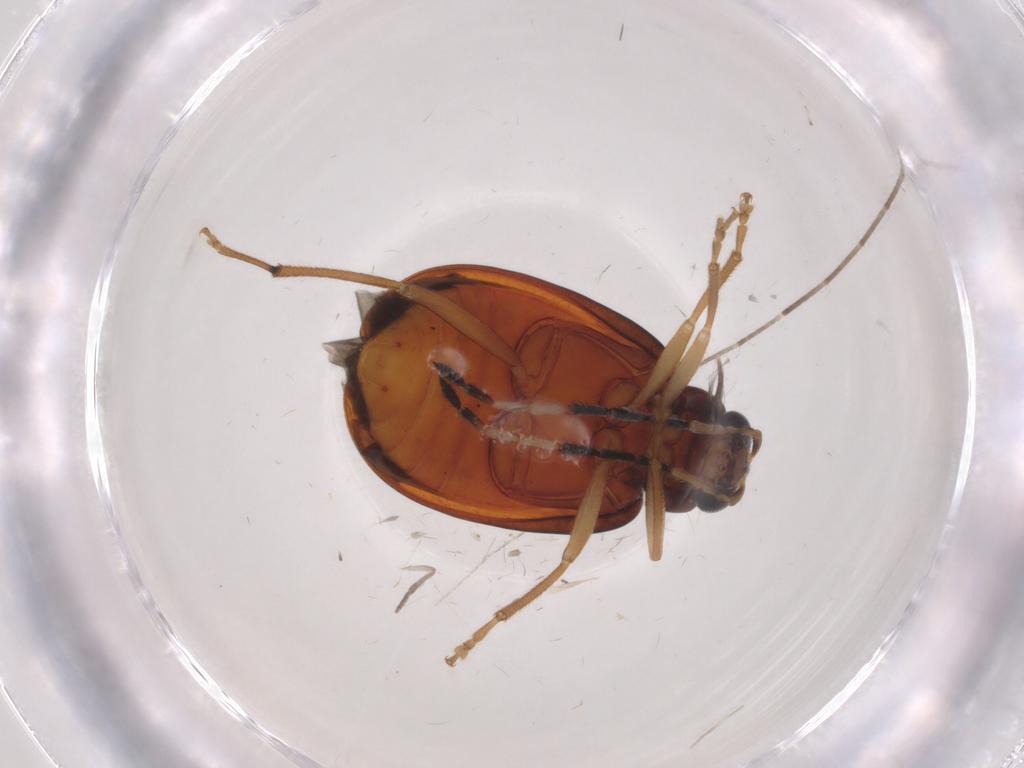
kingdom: Animalia
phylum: Arthropoda
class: Insecta
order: Coleoptera
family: Chrysomelidae
